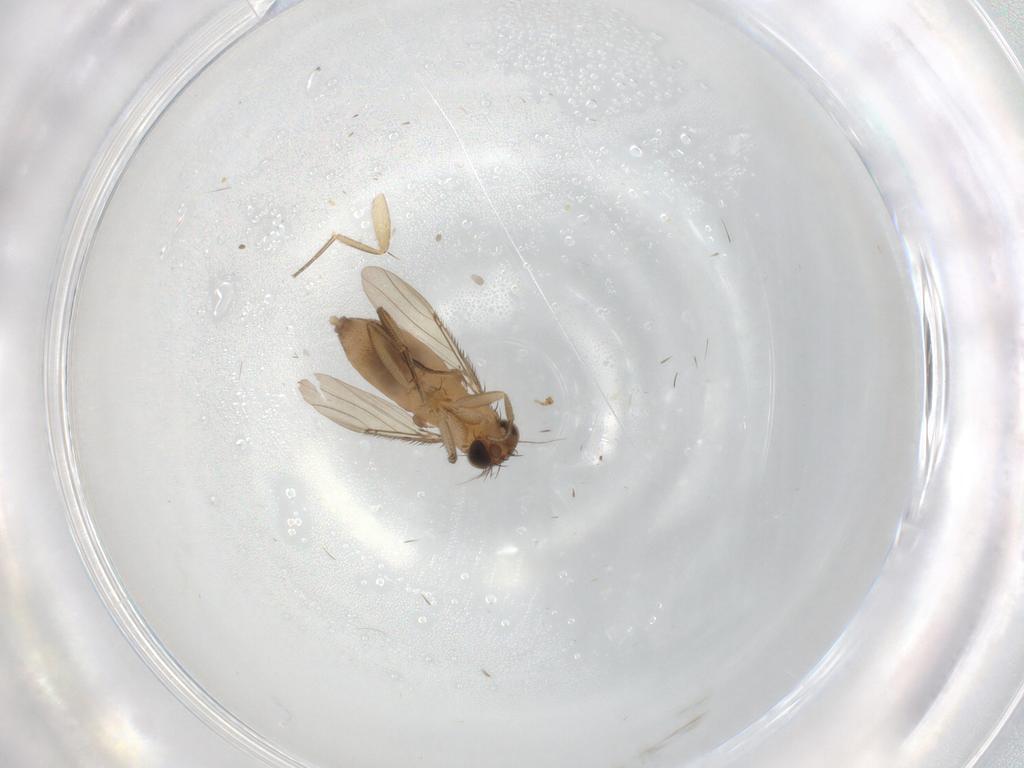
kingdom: Animalia
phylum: Arthropoda
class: Insecta
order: Diptera
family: Phoridae
